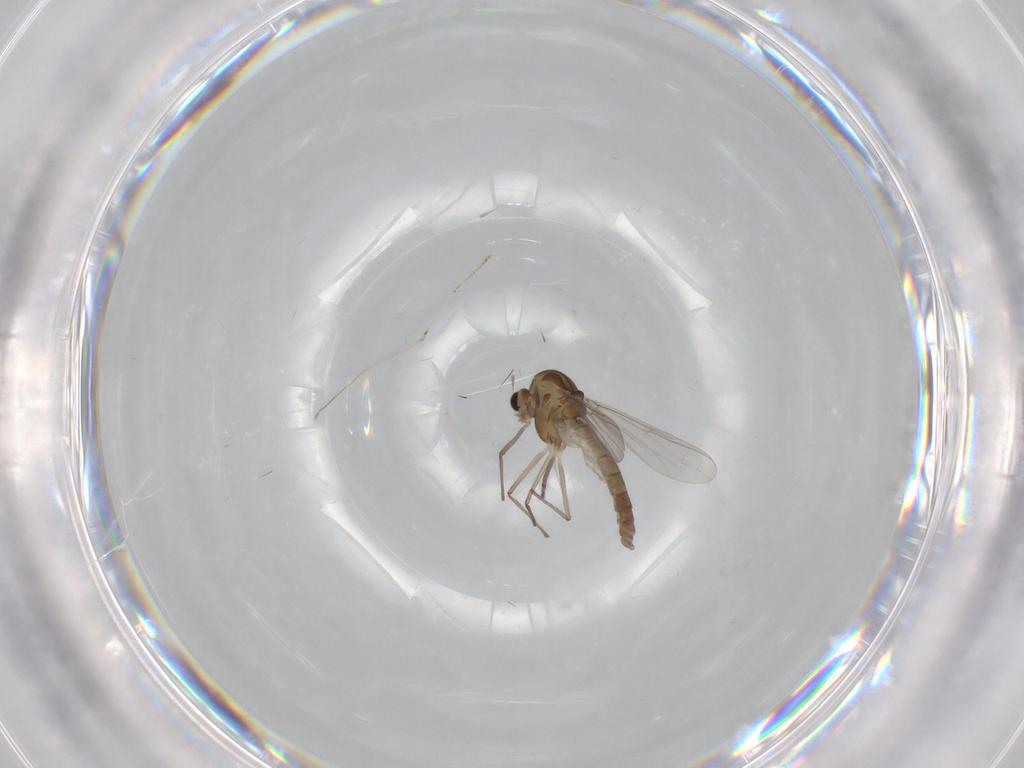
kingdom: Animalia
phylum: Arthropoda
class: Insecta
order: Diptera
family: Chironomidae
